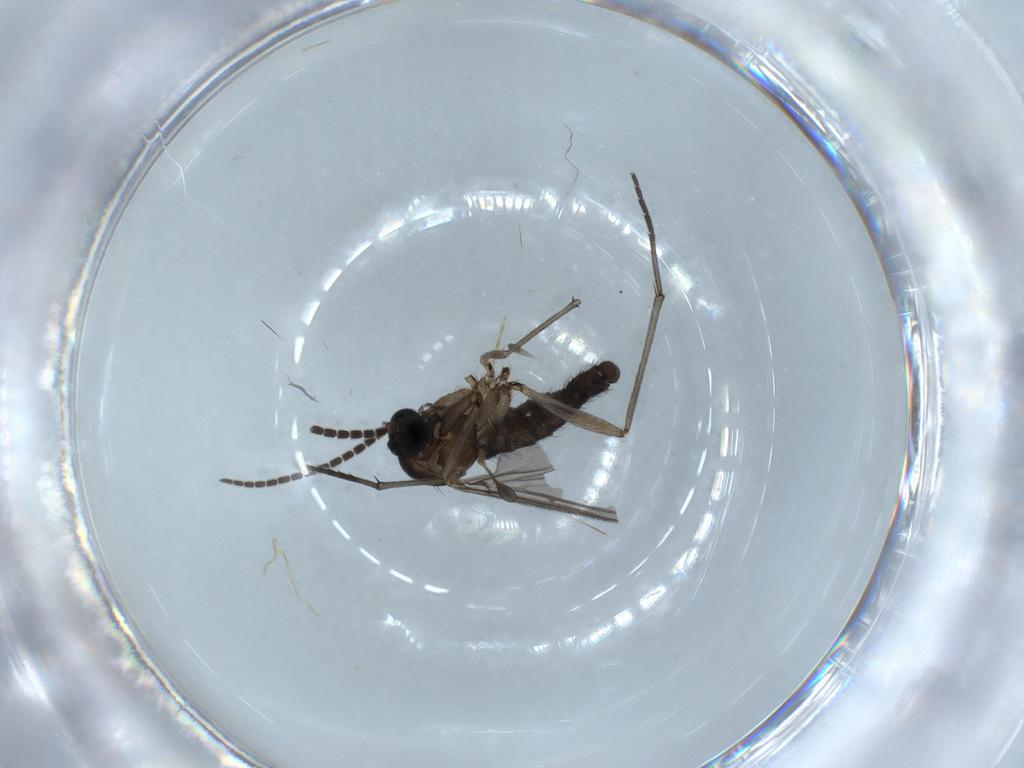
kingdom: Animalia
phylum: Arthropoda
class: Insecta
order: Diptera
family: Sciaridae
